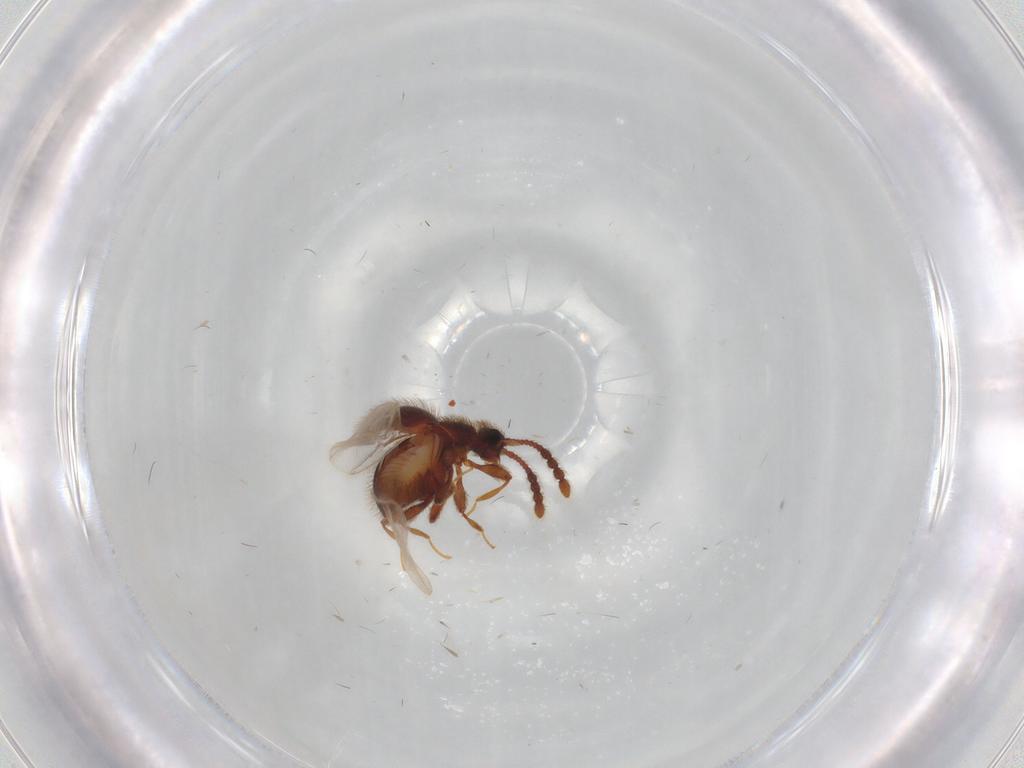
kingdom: Animalia
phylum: Arthropoda
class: Insecta
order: Coleoptera
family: Staphylinidae
